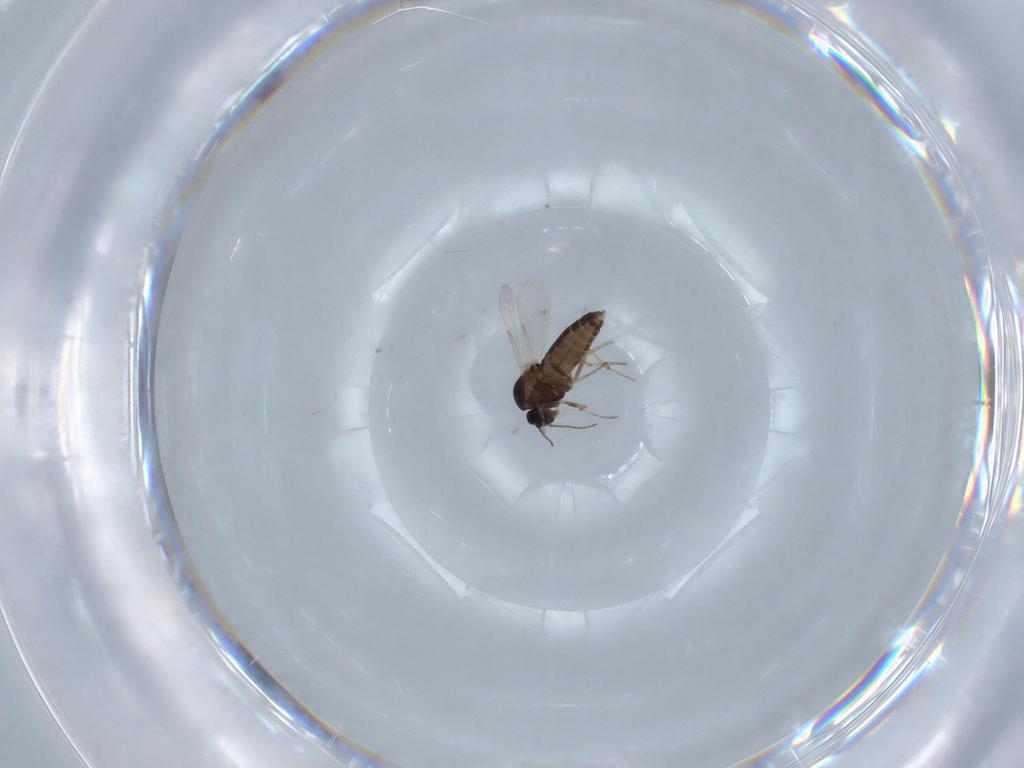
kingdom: Animalia
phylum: Arthropoda
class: Insecta
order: Diptera
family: Ceratopogonidae
